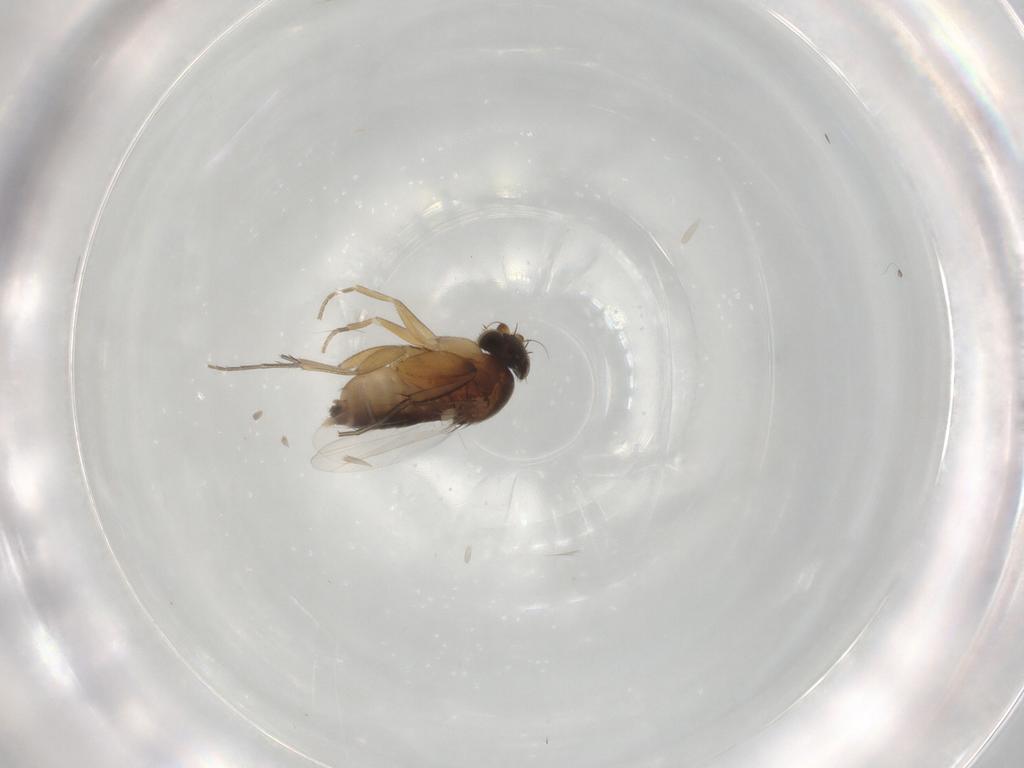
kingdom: Animalia
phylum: Arthropoda
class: Insecta
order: Diptera
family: Phoridae
